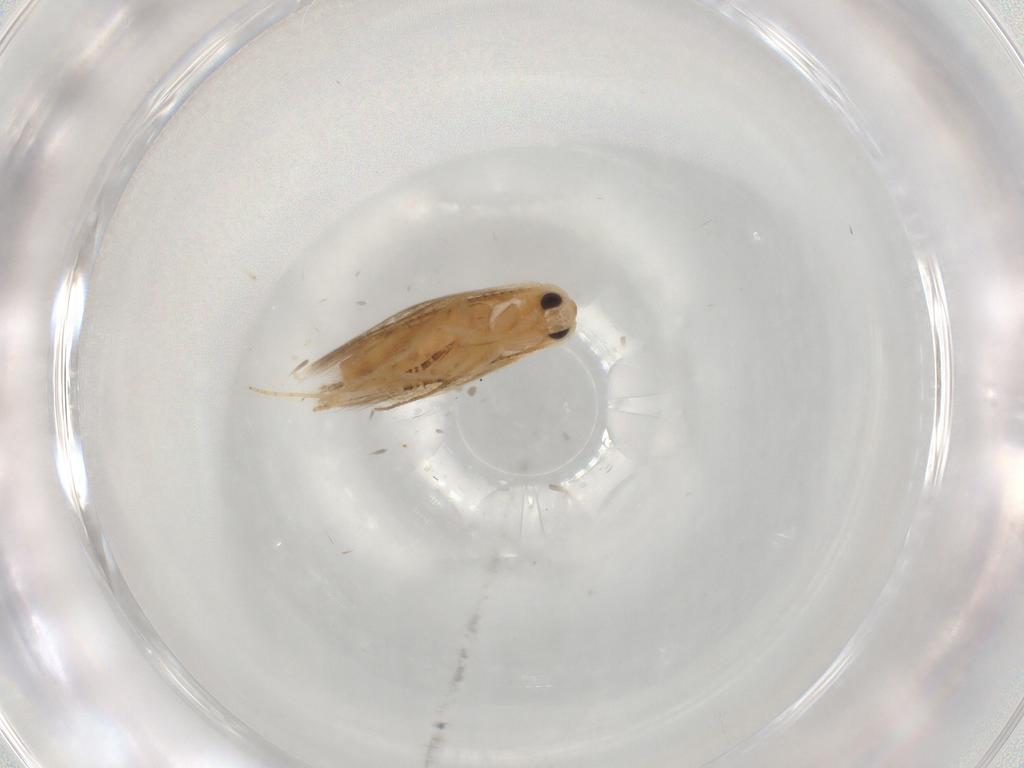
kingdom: Animalia
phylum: Arthropoda
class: Insecta
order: Lepidoptera
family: Bucculatricidae
